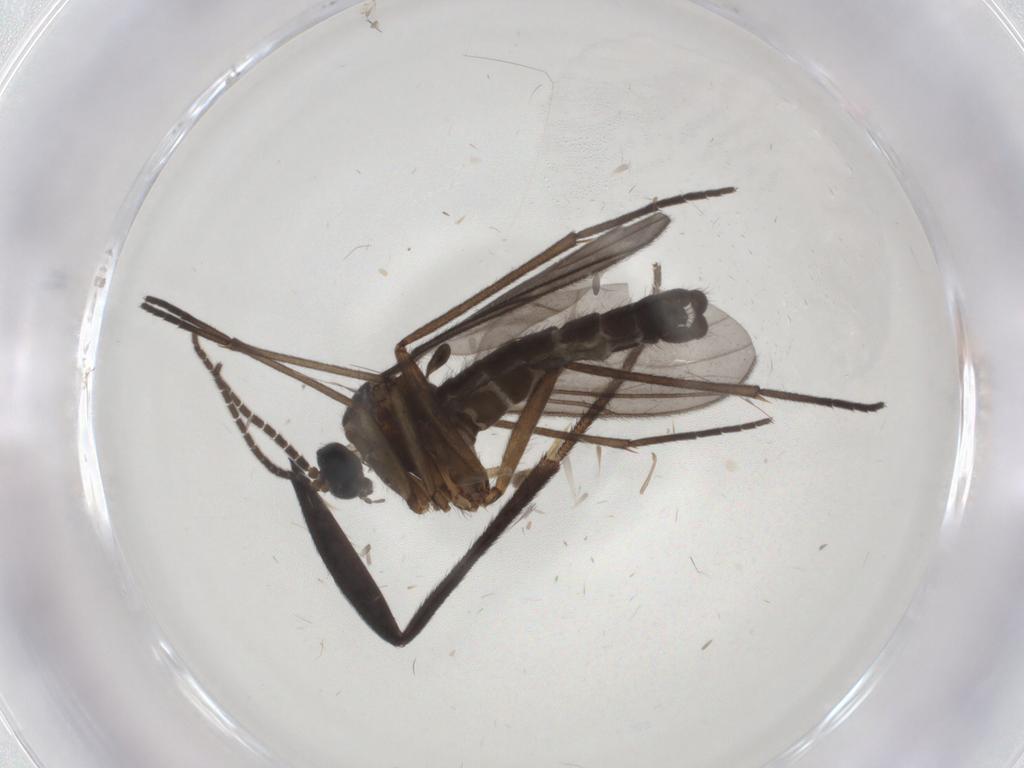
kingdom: Animalia
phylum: Arthropoda
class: Insecta
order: Diptera
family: Sciaridae
